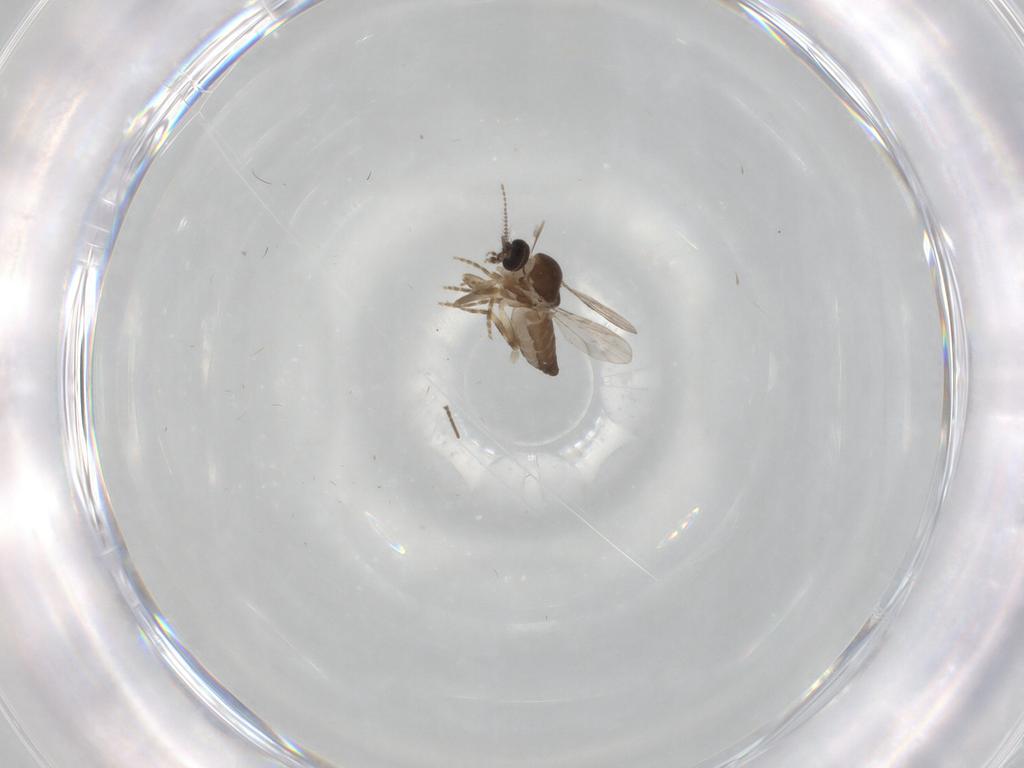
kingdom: Animalia
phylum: Arthropoda
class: Insecta
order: Diptera
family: Ceratopogonidae
